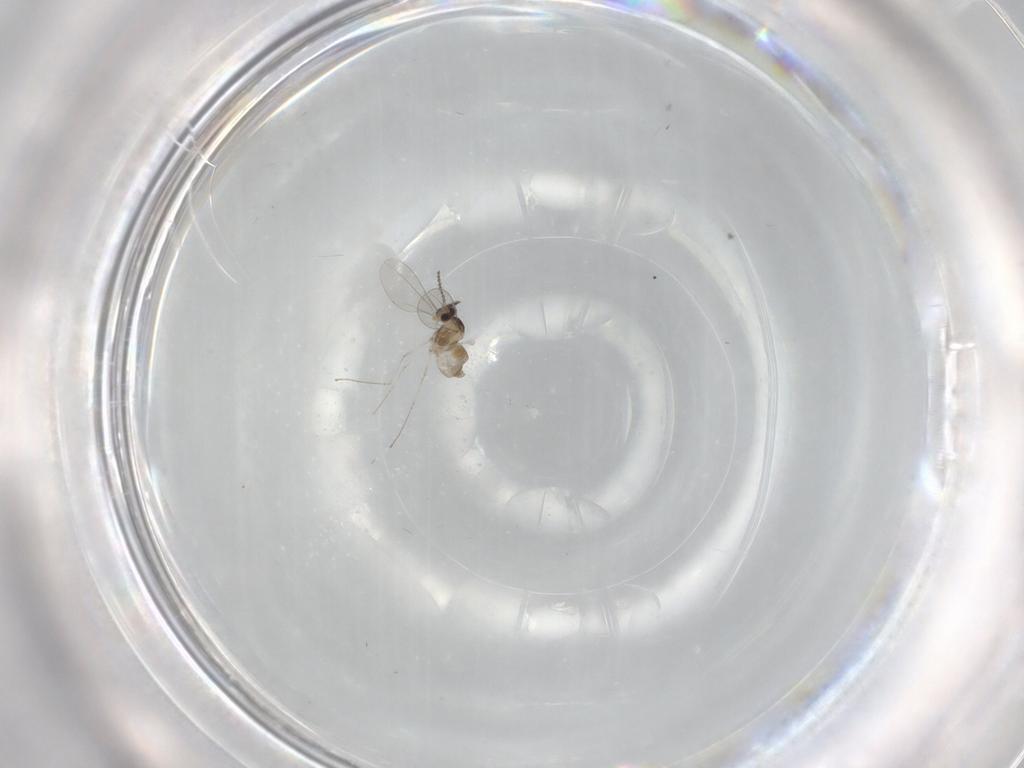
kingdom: Animalia
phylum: Arthropoda
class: Insecta
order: Diptera
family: Cecidomyiidae
